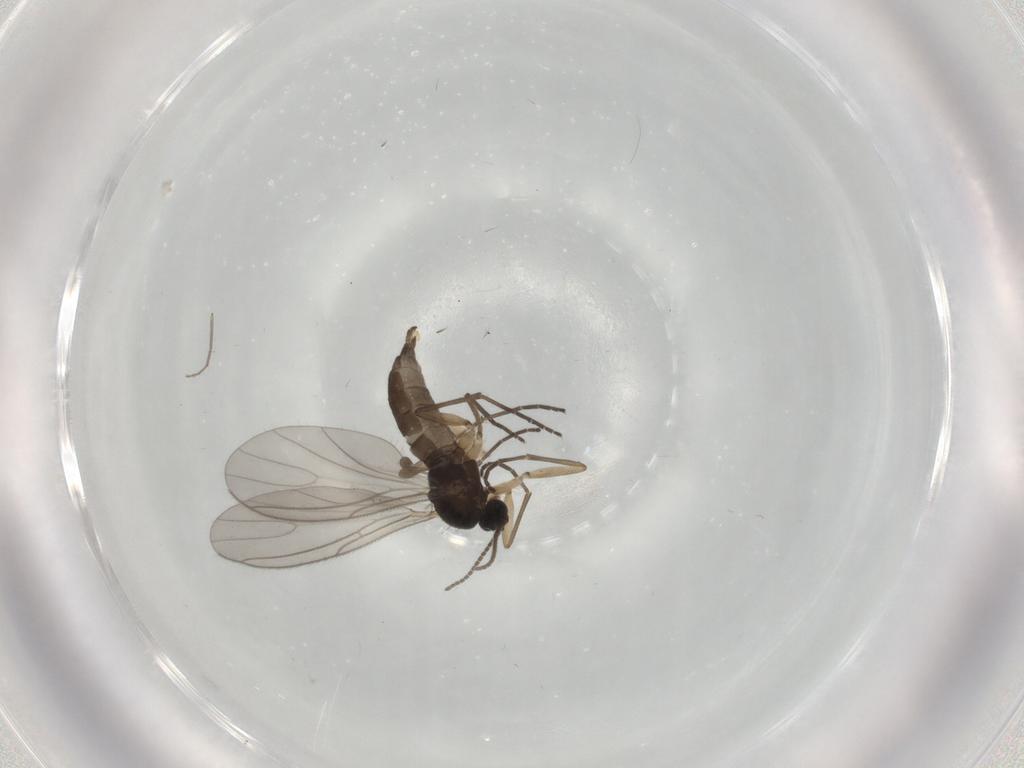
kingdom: Animalia
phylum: Arthropoda
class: Insecta
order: Diptera
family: Sciaridae
